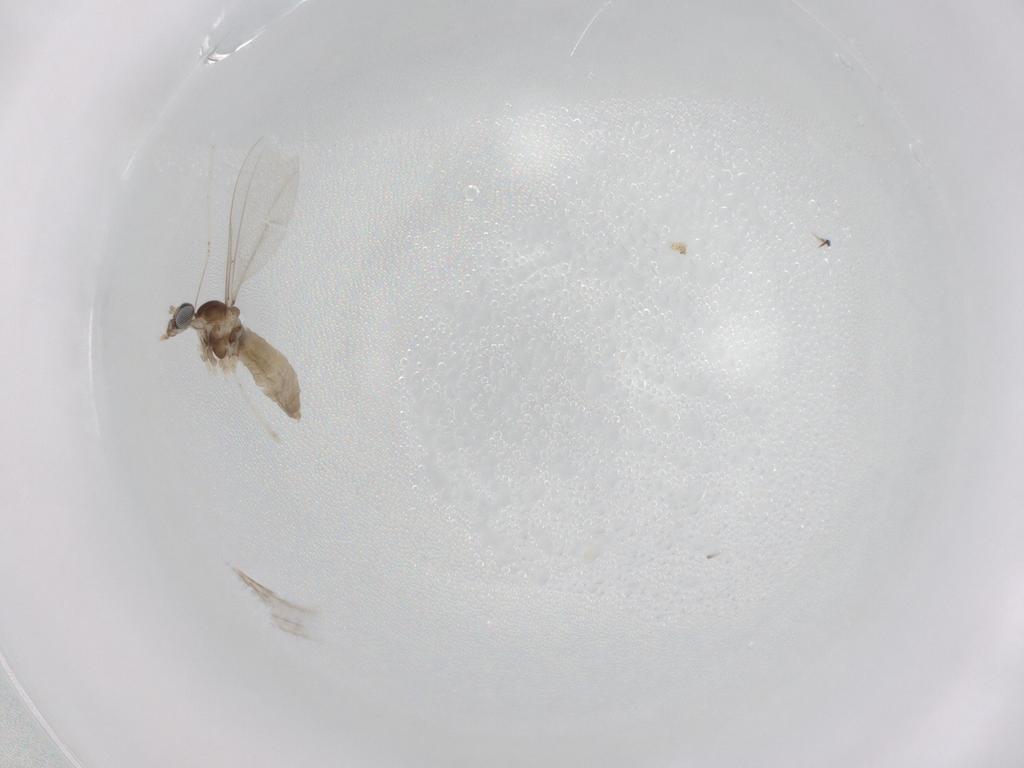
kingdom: Animalia
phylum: Arthropoda
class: Insecta
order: Diptera
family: Cecidomyiidae
